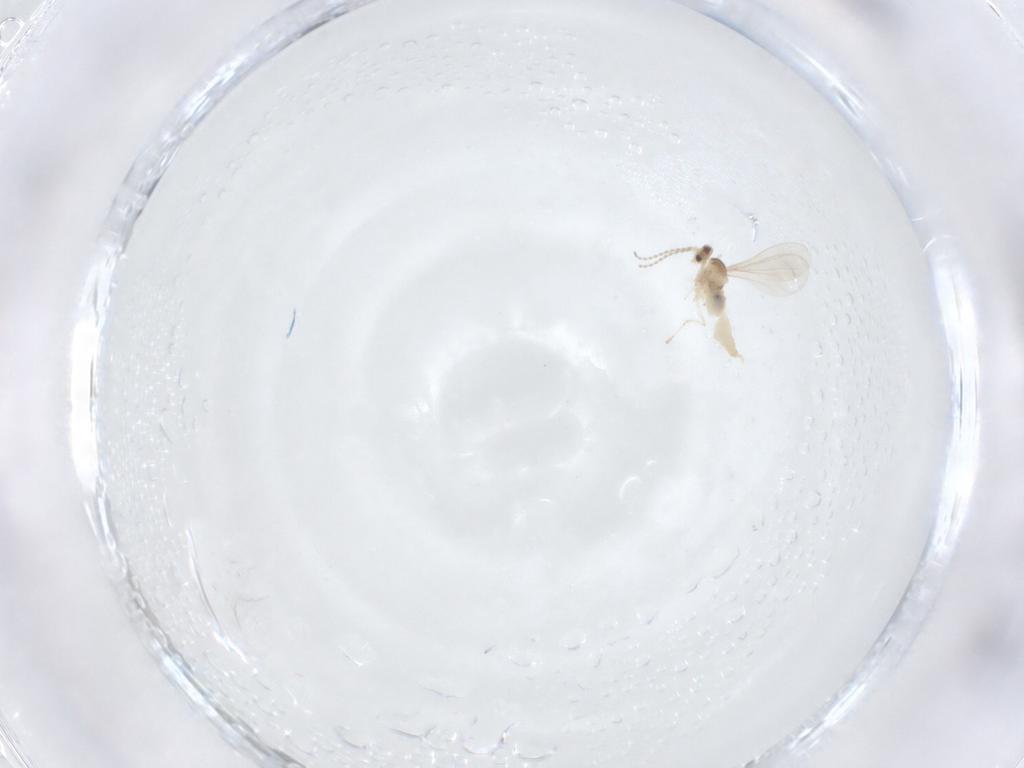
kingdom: Animalia
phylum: Arthropoda
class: Insecta
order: Diptera
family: Cecidomyiidae
